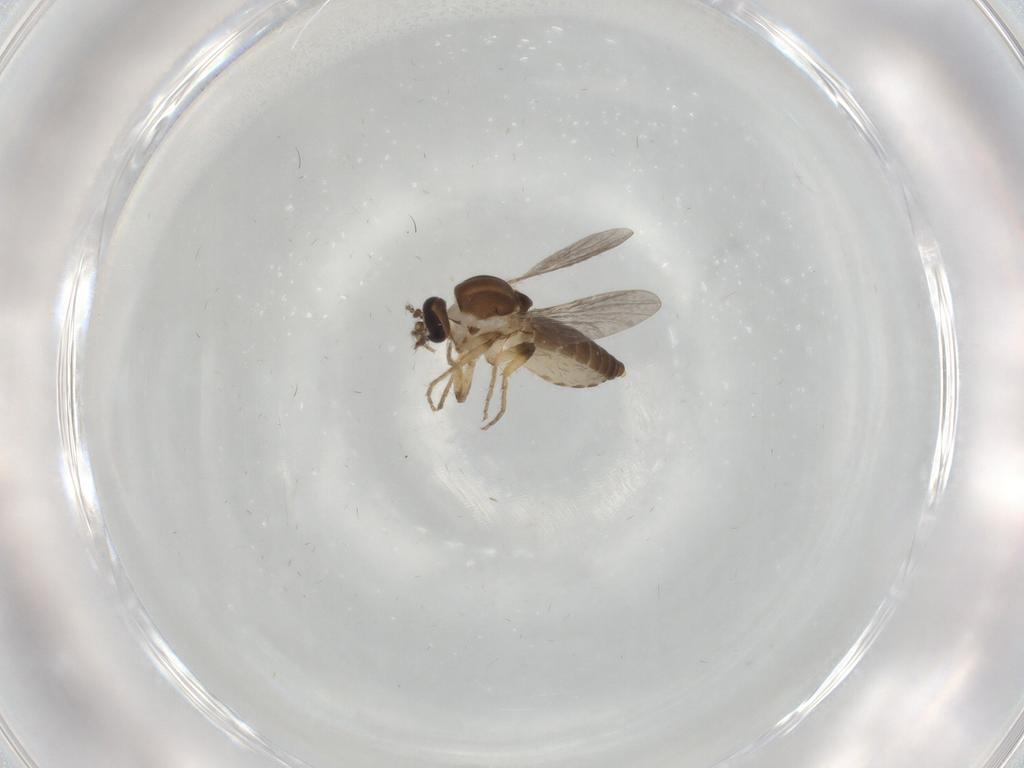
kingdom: Animalia
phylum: Arthropoda
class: Insecta
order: Diptera
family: Ceratopogonidae
